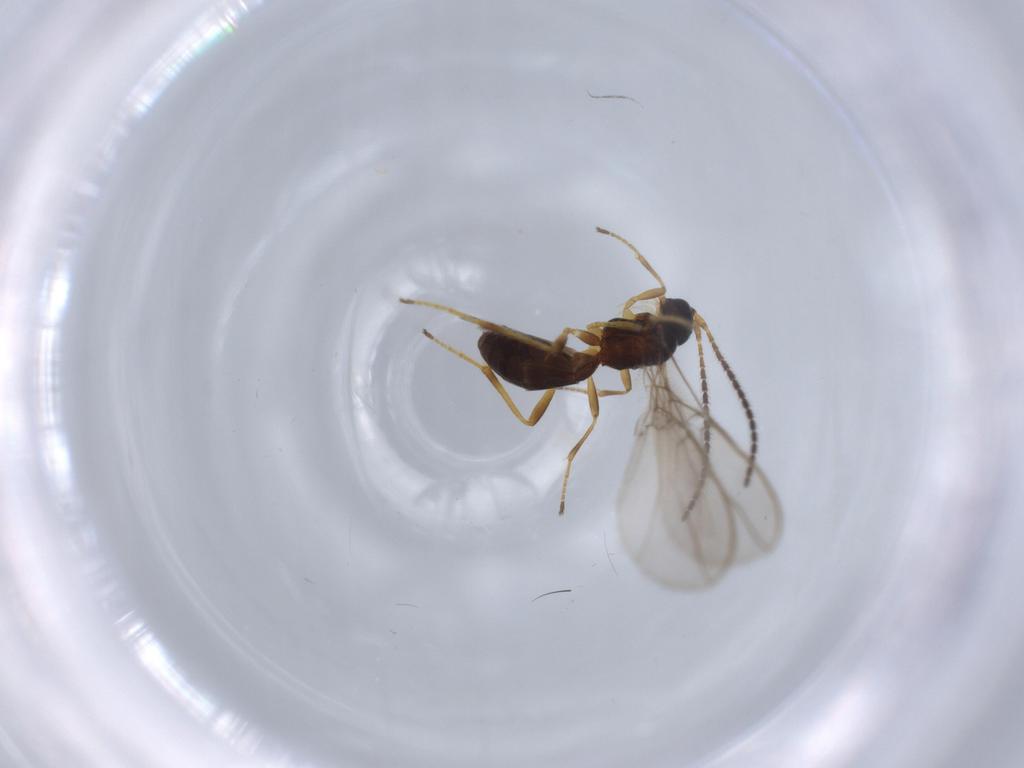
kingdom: Animalia
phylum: Arthropoda
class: Insecta
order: Hymenoptera
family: Braconidae
